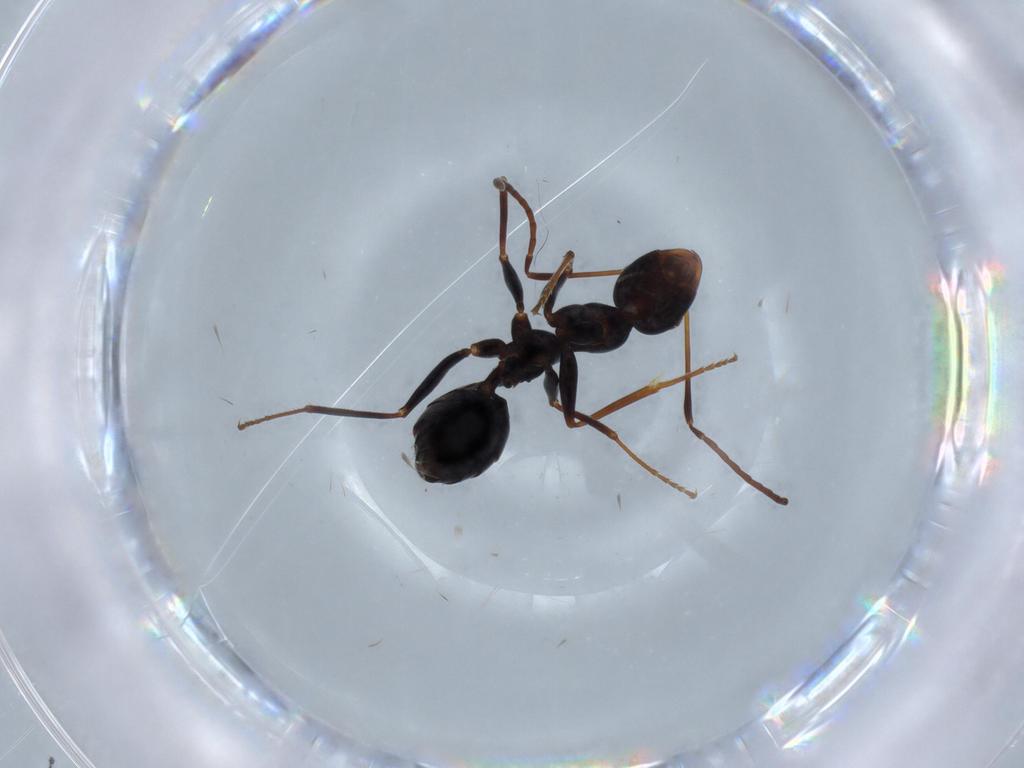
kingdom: Animalia
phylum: Arthropoda
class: Insecta
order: Hymenoptera
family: Formicidae
